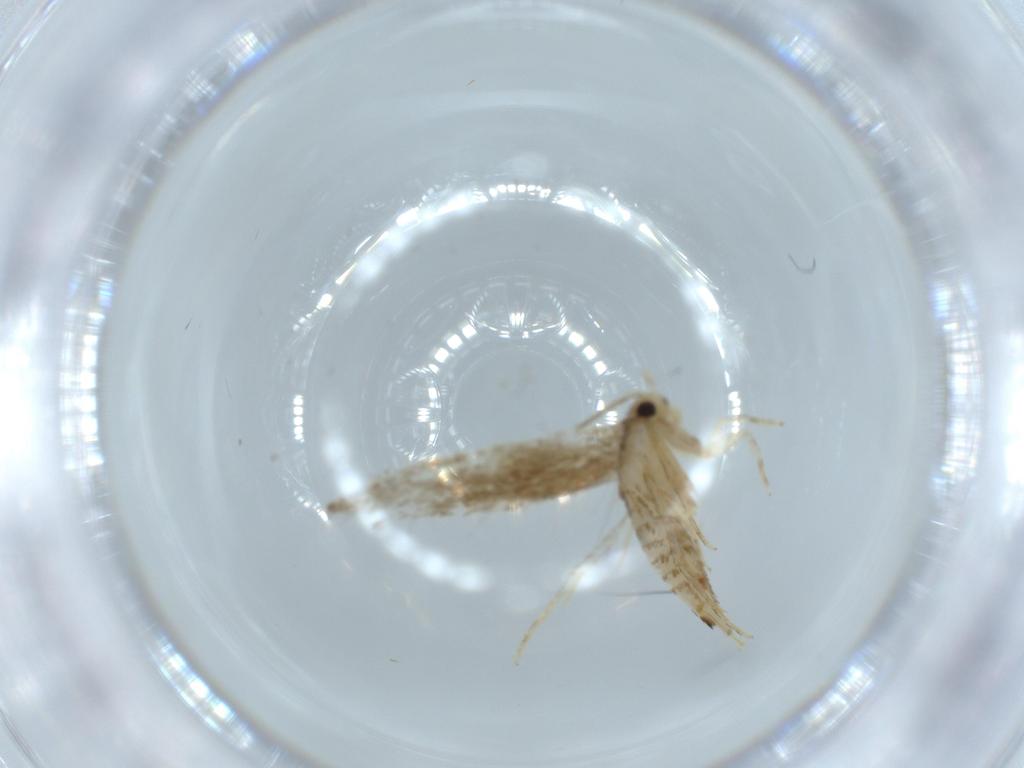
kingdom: Animalia
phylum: Arthropoda
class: Insecta
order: Lepidoptera
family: Tineidae
